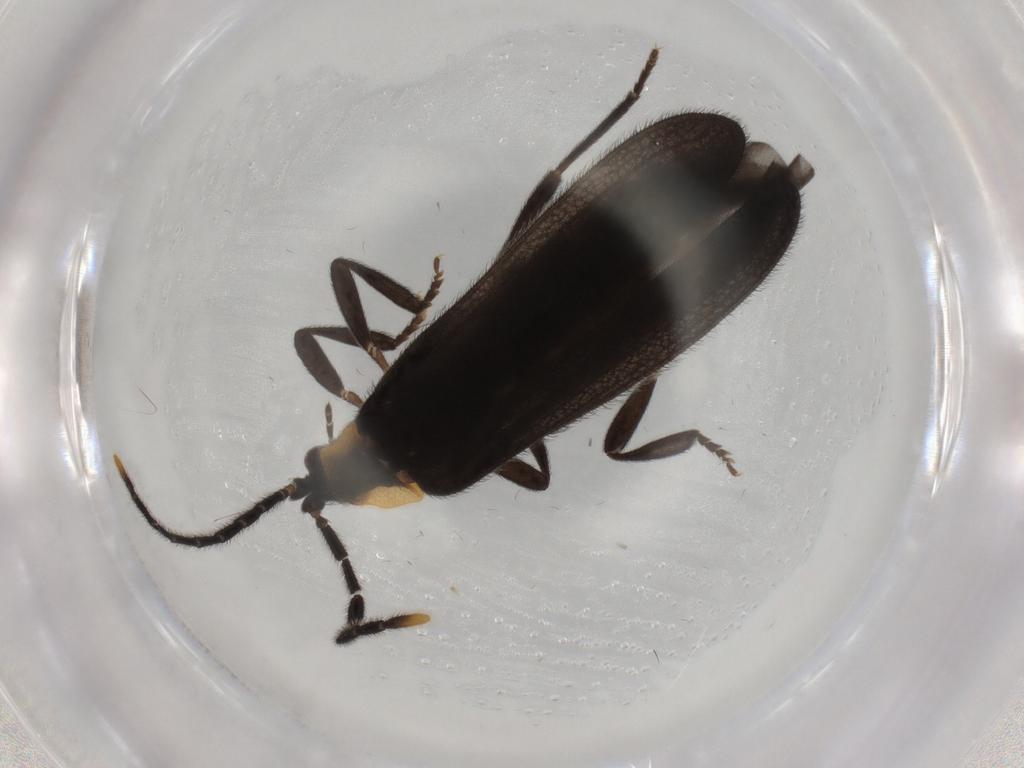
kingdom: Animalia
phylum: Arthropoda
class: Insecta
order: Coleoptera
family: Lycidae
